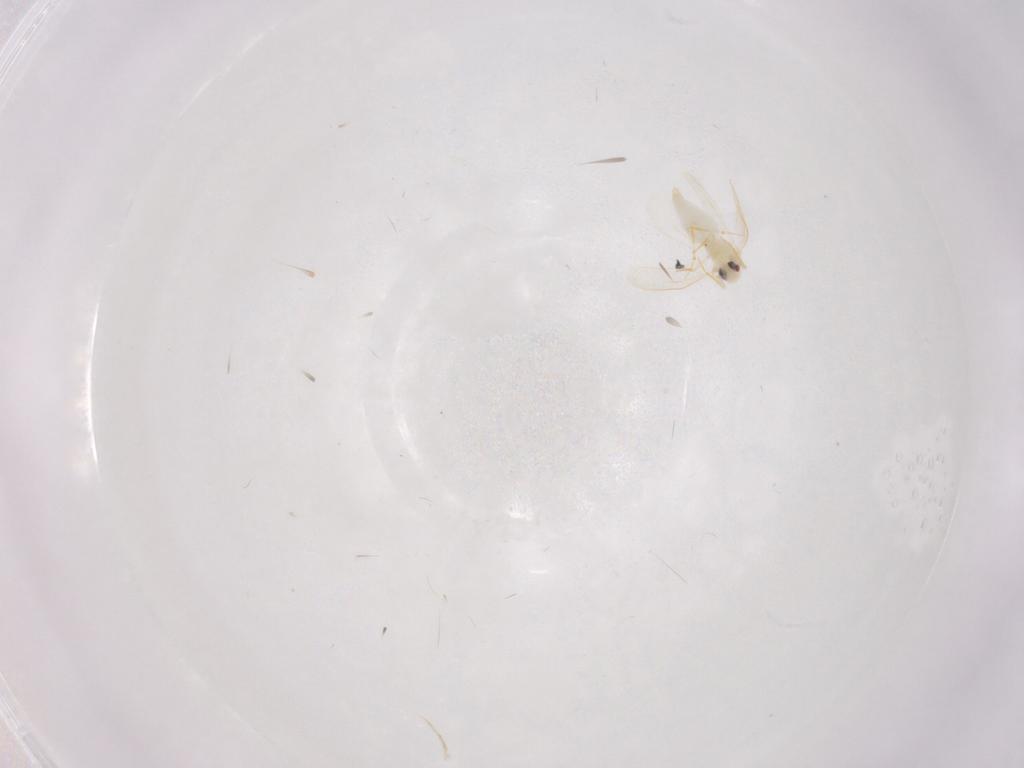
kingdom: Animalia
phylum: Arthropoda
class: Insecta
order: Hemiptera
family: Aleyrodidae
